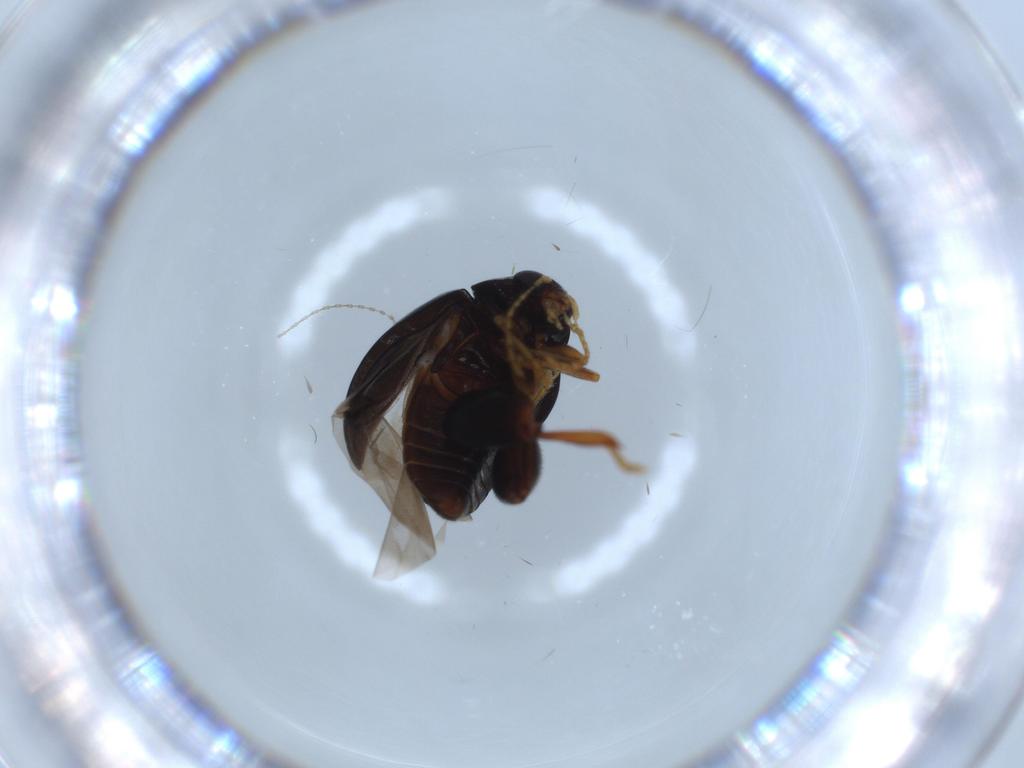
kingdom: Animalia
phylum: Arthropoda
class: Insecta
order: Coleoptera
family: Chrysomelidae
